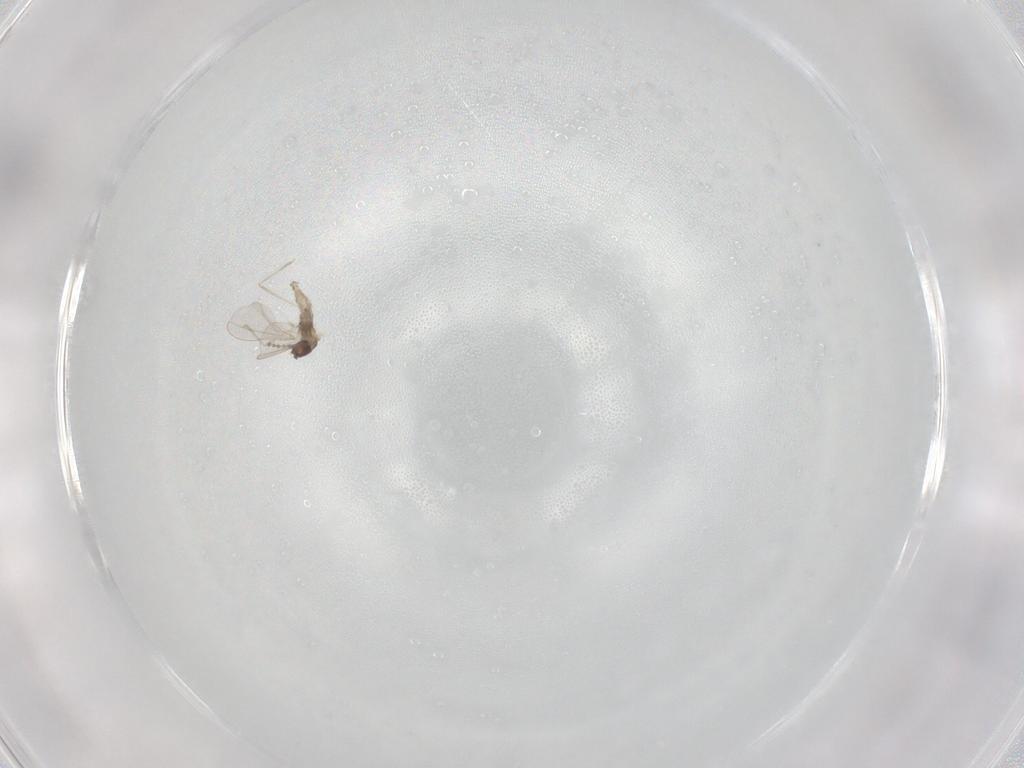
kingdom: Animalia
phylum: Arthropoda
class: Insecta
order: Diptera
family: Cecidomyiidae
